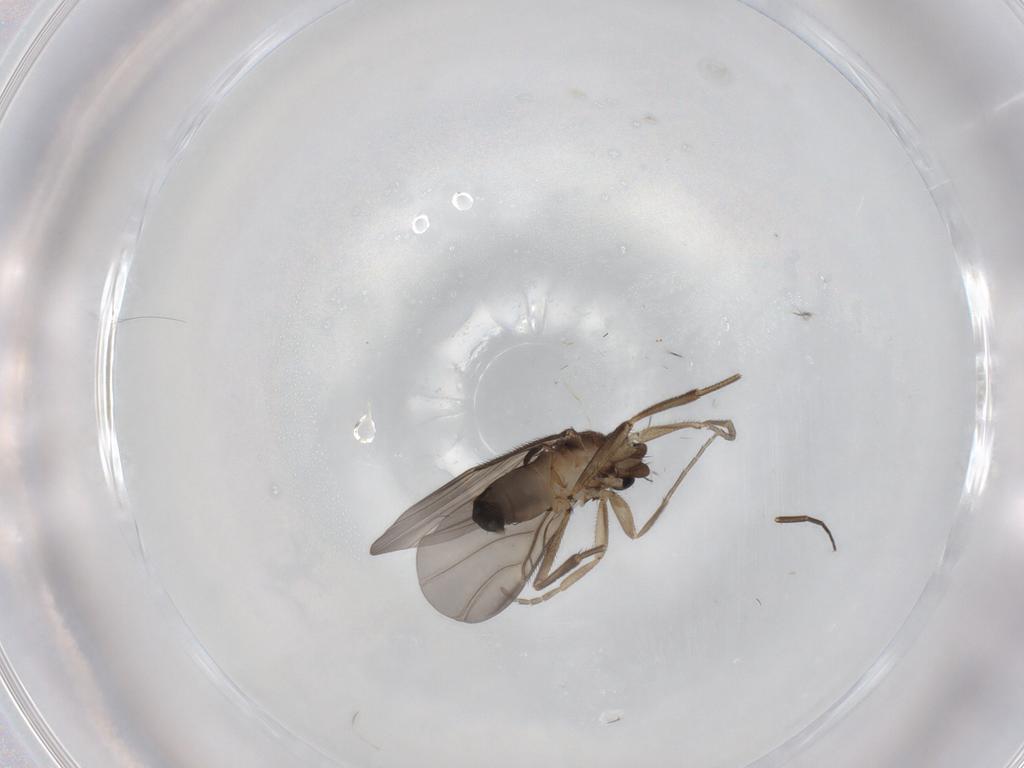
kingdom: Animalia
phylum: Arthropoda
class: Insecta
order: Diptera
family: Phoridae
